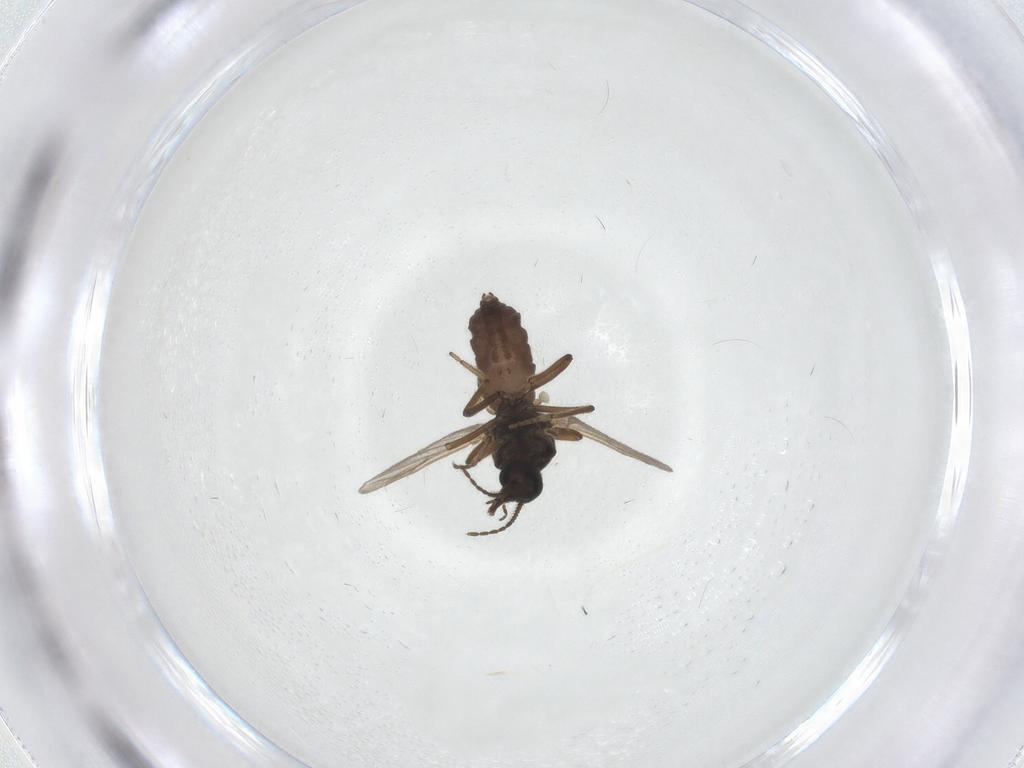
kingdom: Animalia
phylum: Arthropoda
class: Insecta
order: Diptera
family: Ceratopogonidae
